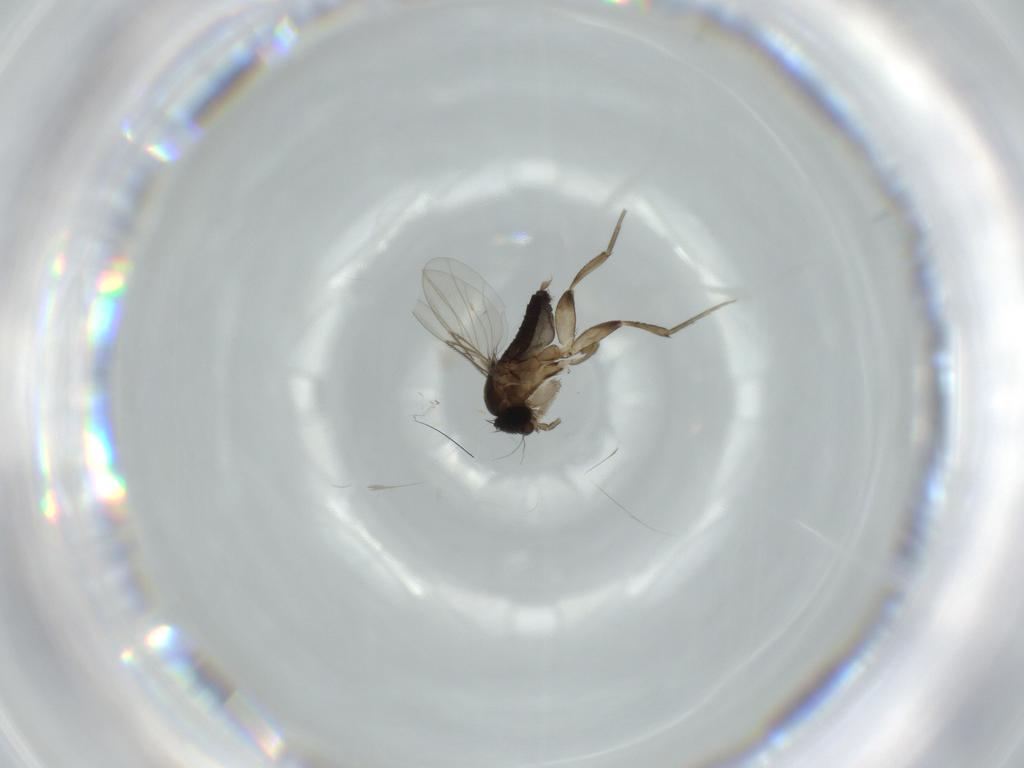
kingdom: Animalia
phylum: Arthropoda
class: Insecta
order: Diptera
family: Phoridae
